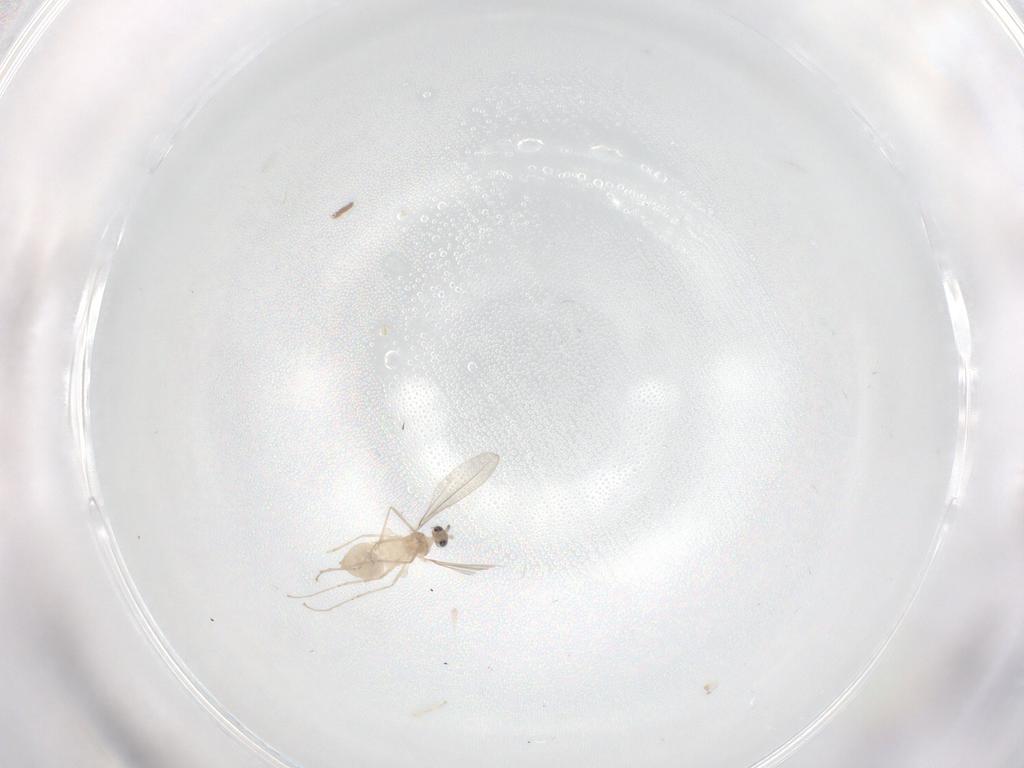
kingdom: Animalia
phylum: Arthropoda
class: Insecta
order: Diptera
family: Cecidomyiidae
